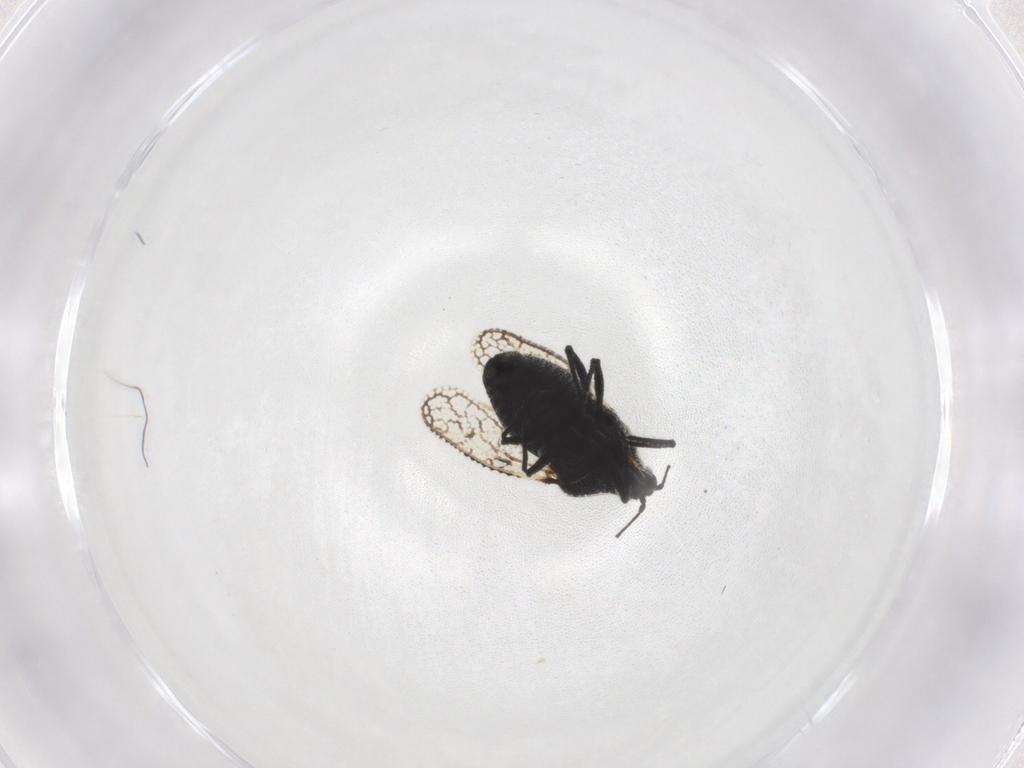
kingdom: Animalia
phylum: Arthropoda
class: Insecta
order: Hemiptera
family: Tingidae
